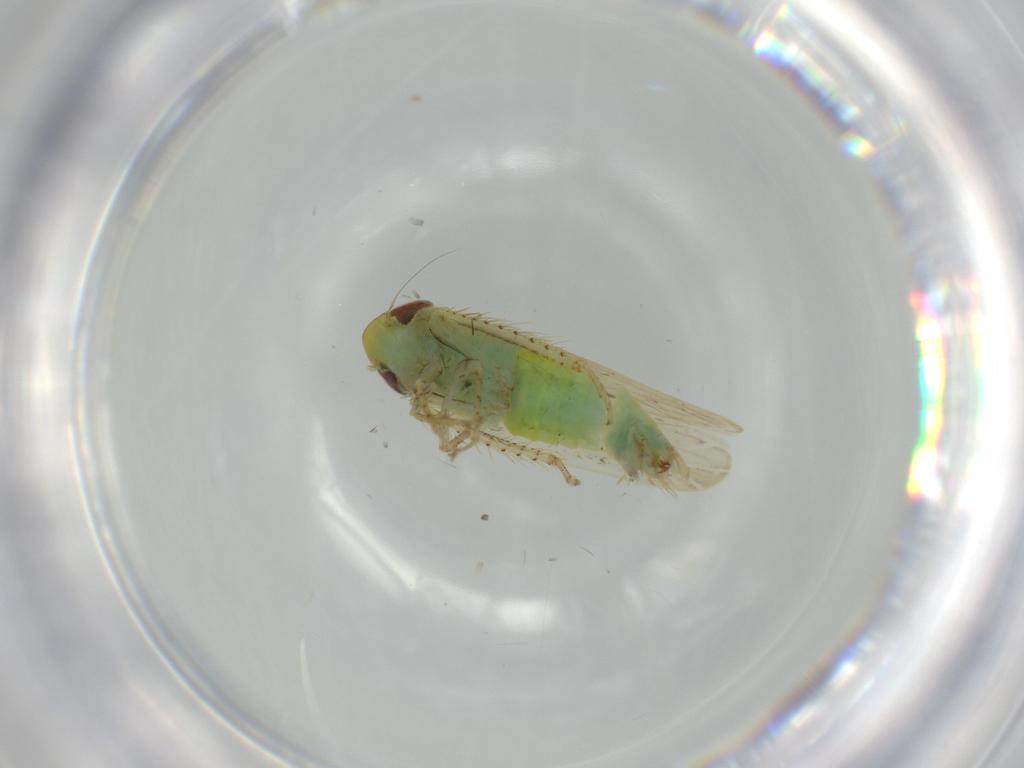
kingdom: Animalia
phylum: Arthropoda
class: Insecta
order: Hemiptera
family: Cicadellidae
